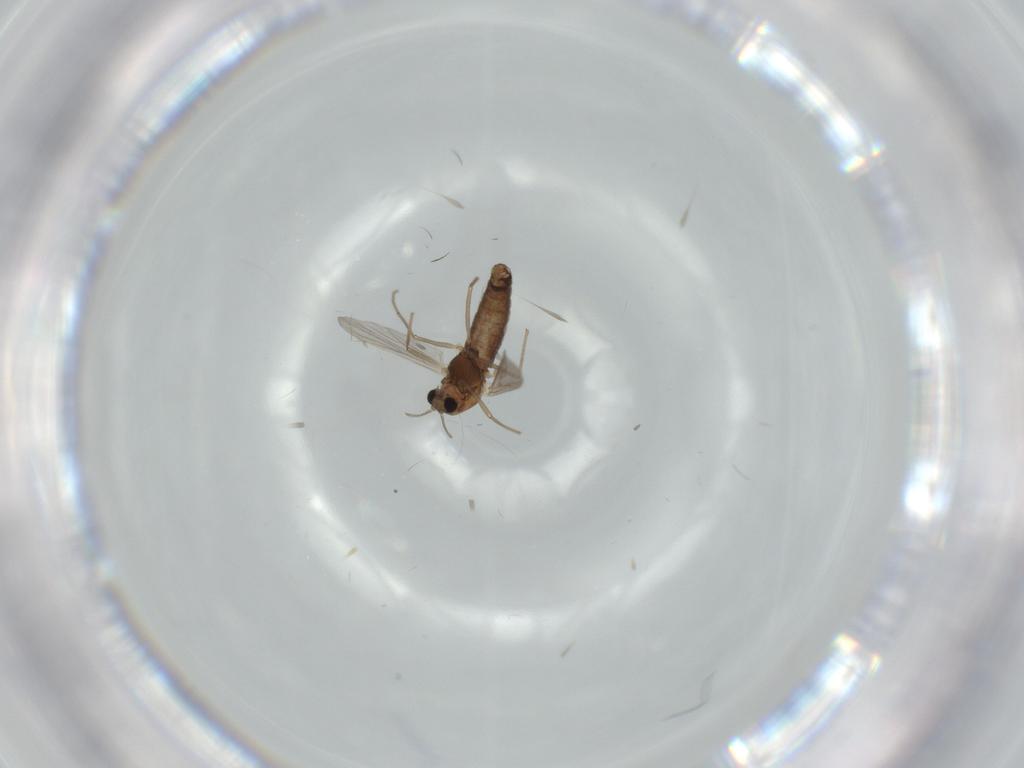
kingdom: Animalia
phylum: Arthropoda
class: Insecta
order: Diptera
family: Chironomidae
